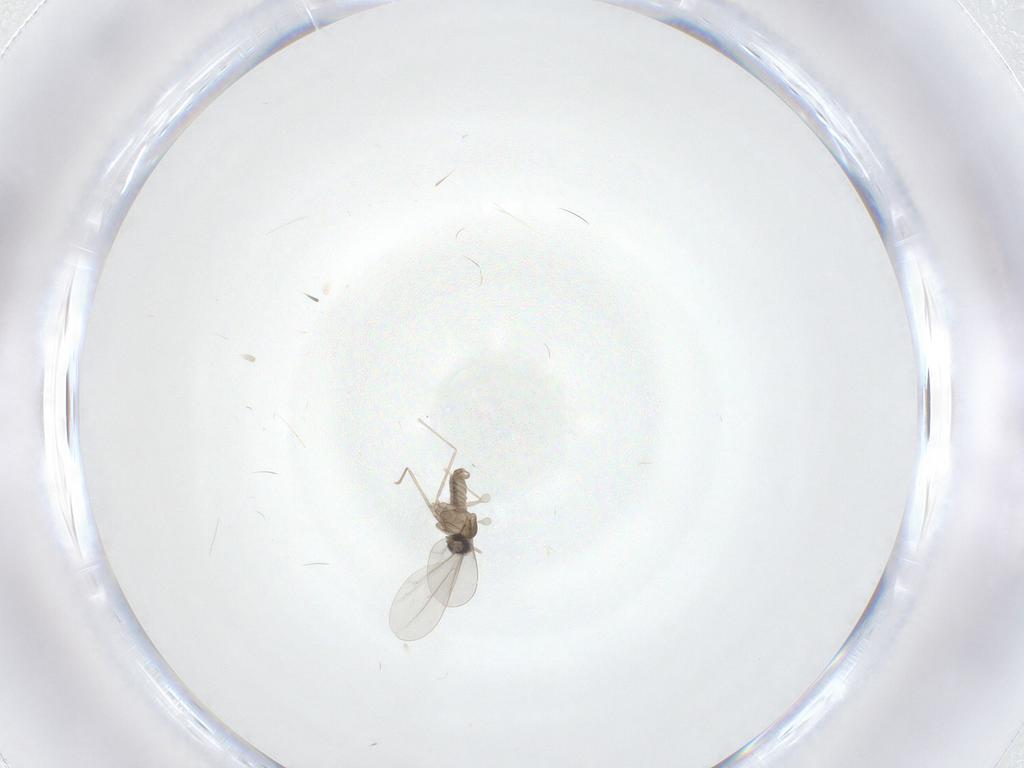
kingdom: Animalia
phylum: Arthropoda
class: Insecta
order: Diptera
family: Cecidomyiidae
